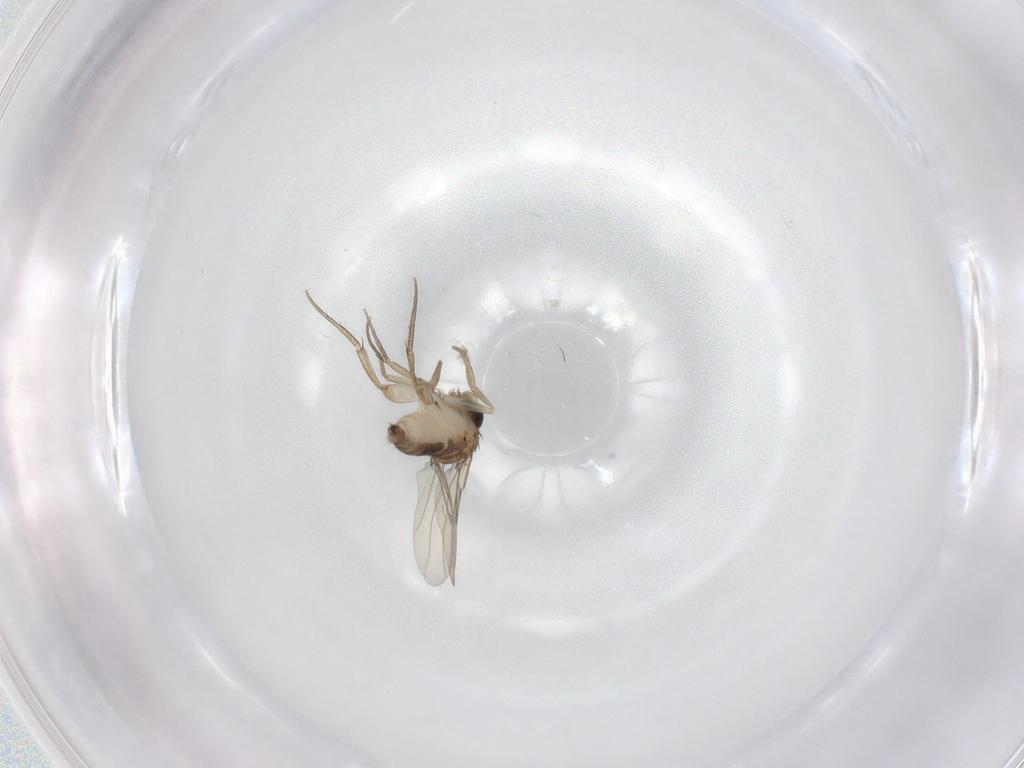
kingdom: Animalia
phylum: Arthropoda
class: Insecta
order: Diptera
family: Phoridae
